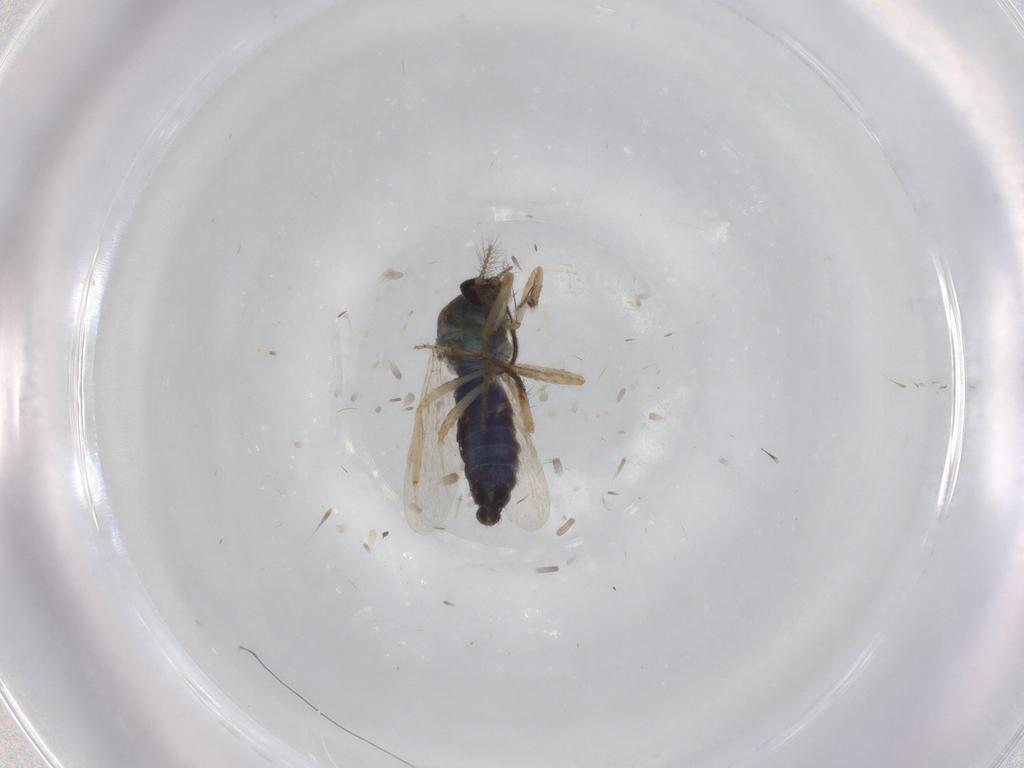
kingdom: Animalia
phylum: Arthropoda
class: Insecta
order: Diptera
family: Chironomidae
